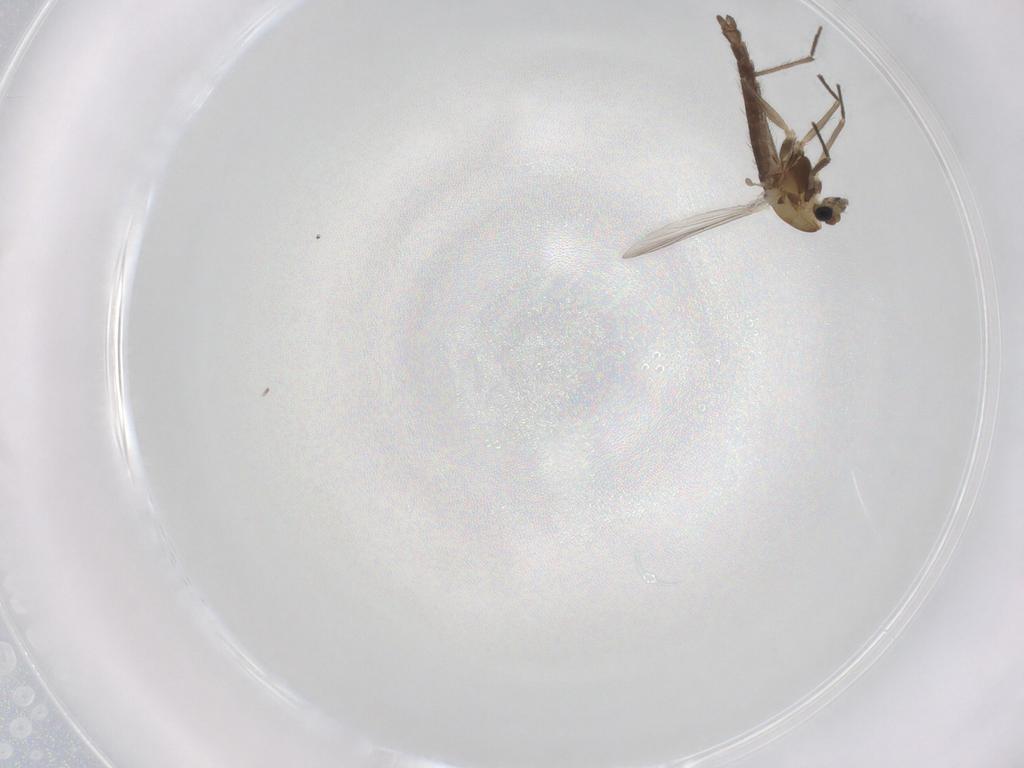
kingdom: Animalia
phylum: Arthropoda
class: Insecta
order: Diptera
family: Chironomidae
